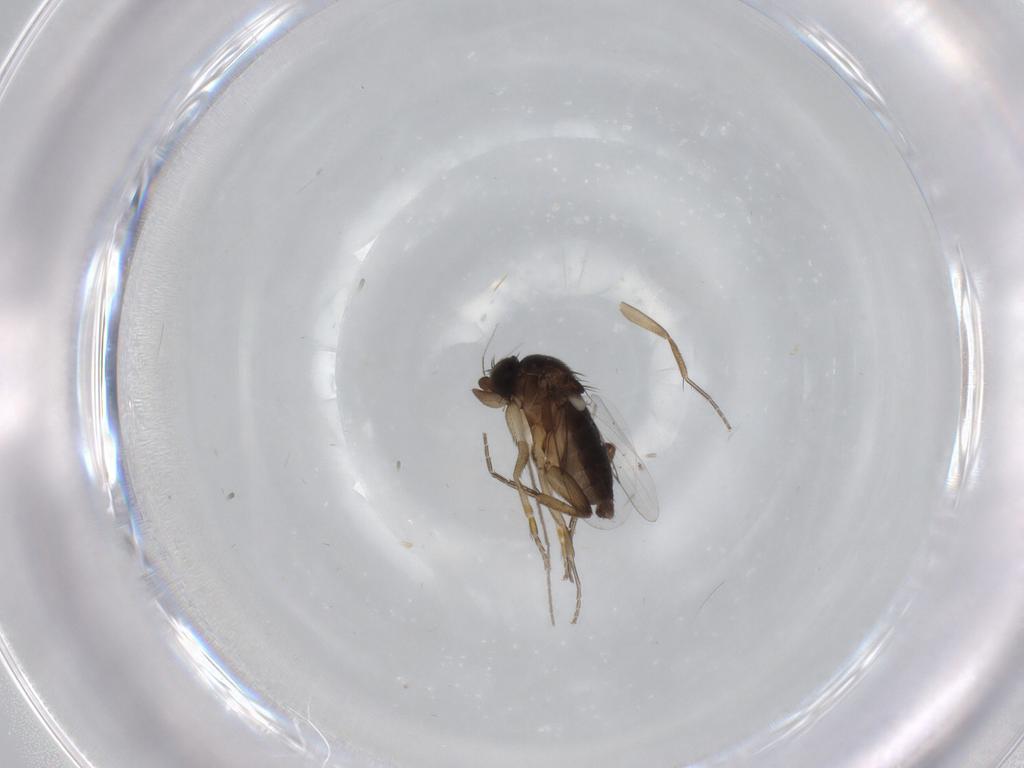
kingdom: Animalia
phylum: Arthropoda
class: Insecta
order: Diptera
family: Phoridae
